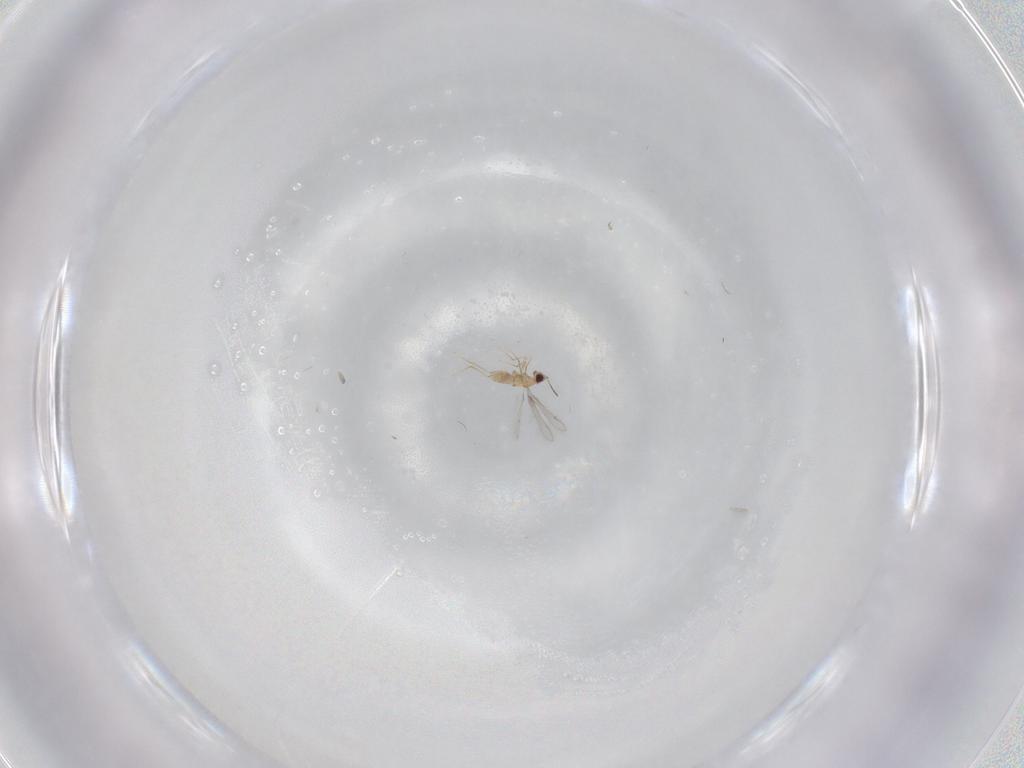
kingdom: Animalia
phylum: Arthropoda
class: Insecta
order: Hymenoptera
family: Mymaridae
